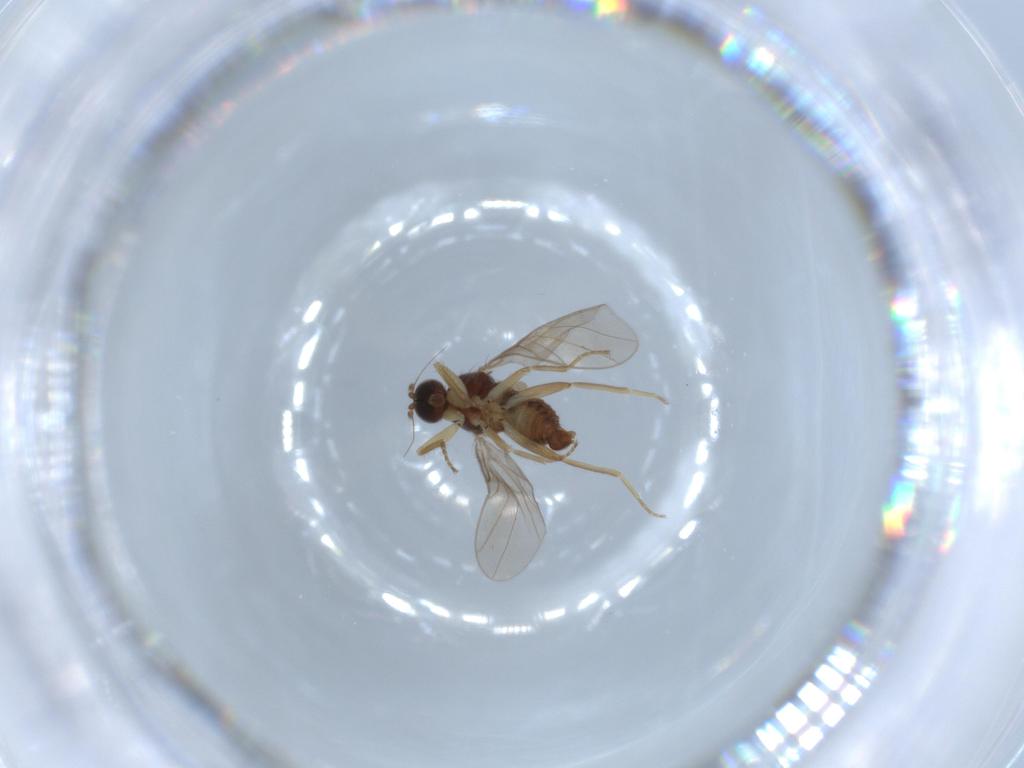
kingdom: Animalia
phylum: Arthropoda
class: Insecta
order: Diptera
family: Hybotidae
